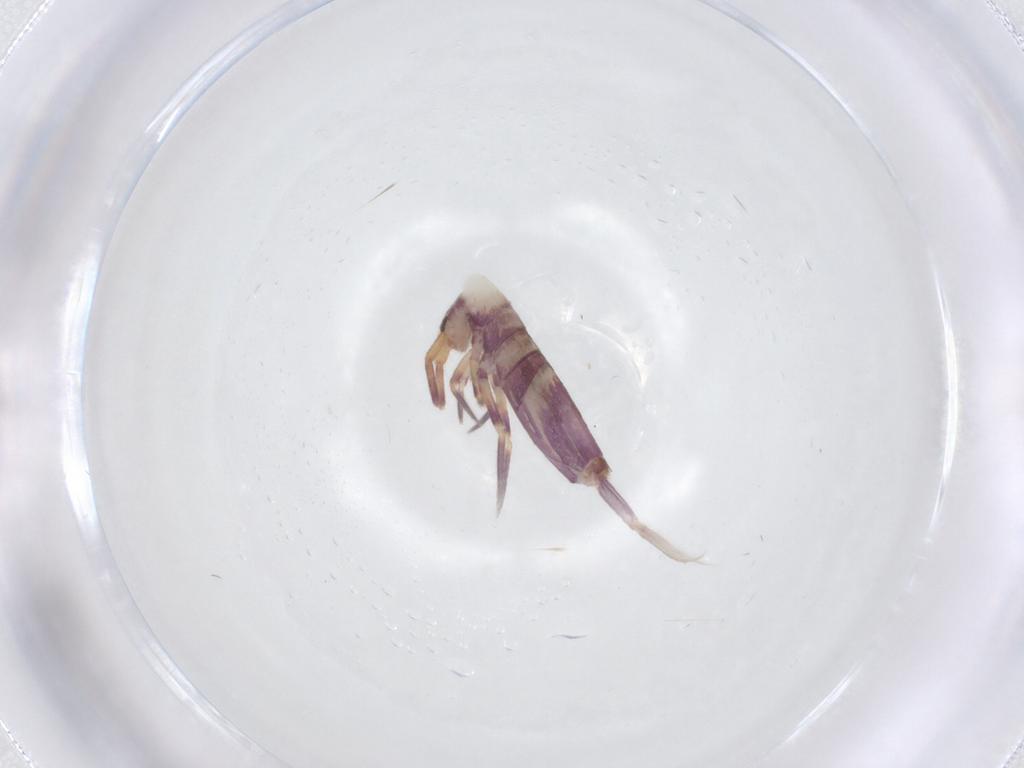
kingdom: Animalia
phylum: Arthropoda
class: Collembola
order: Entomobryomorpha
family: Entomobryidae
